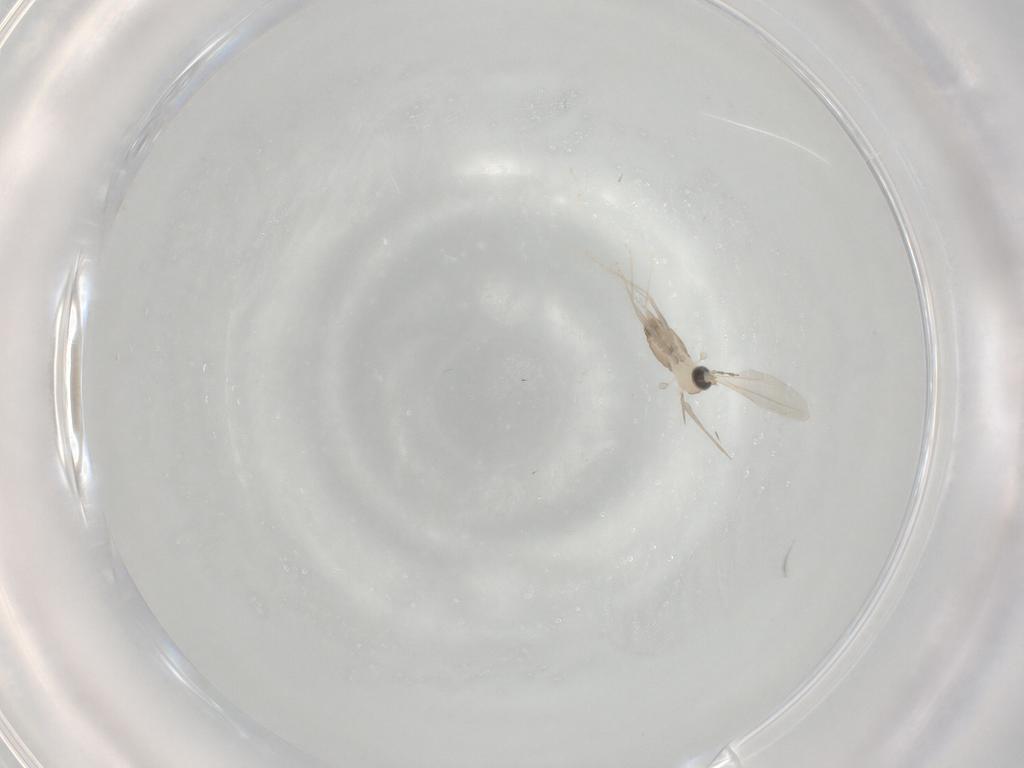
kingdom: Animalia
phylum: Arthropoda
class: Insecta
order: Diptera
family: Cecidomyiidae
